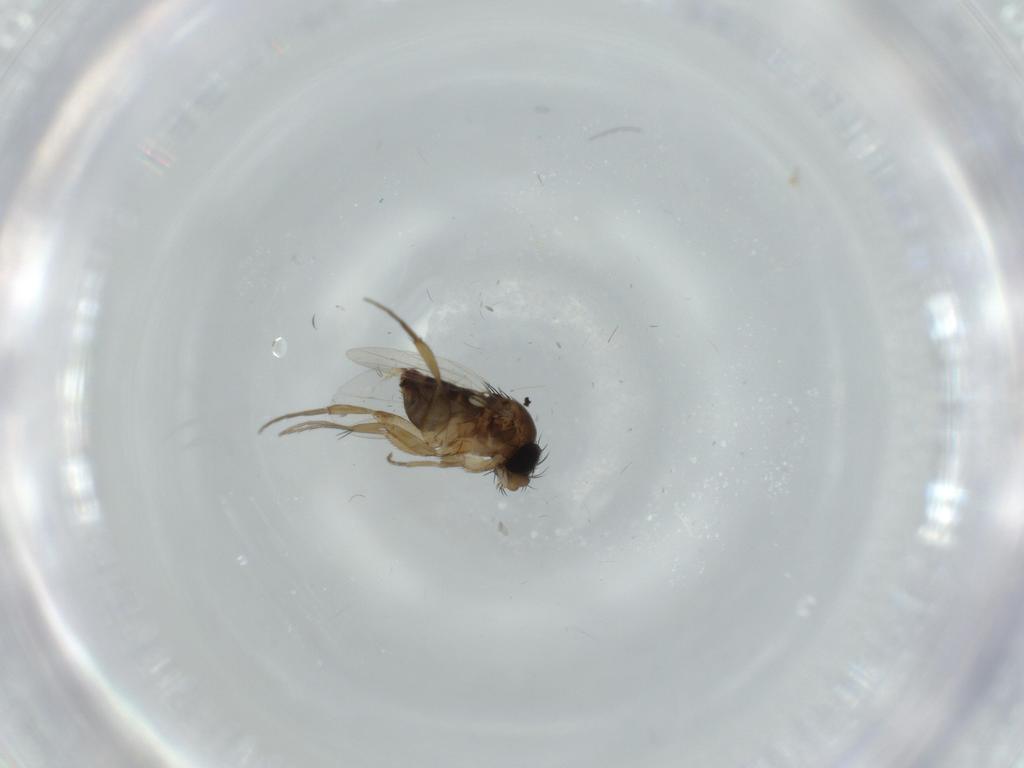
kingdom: Animalia
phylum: Arthropoda
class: Insecta
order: Diptera
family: Phoridae
